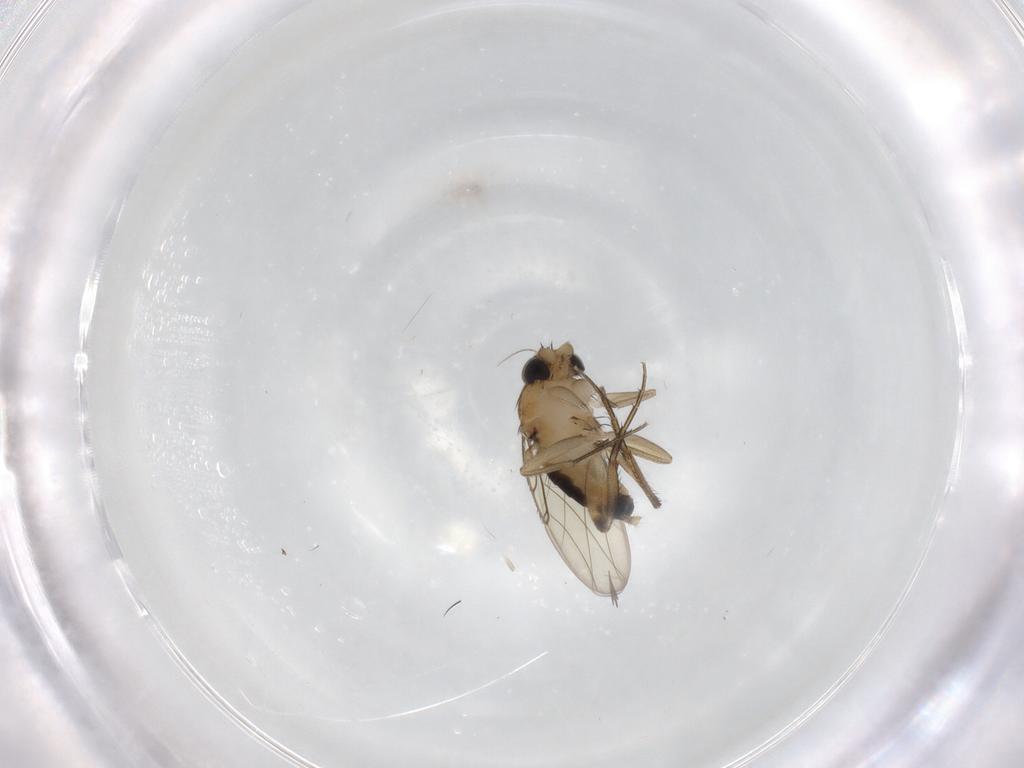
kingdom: Animalia
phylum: Arthropoda
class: Insecta
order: Diptera
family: Phoridae
